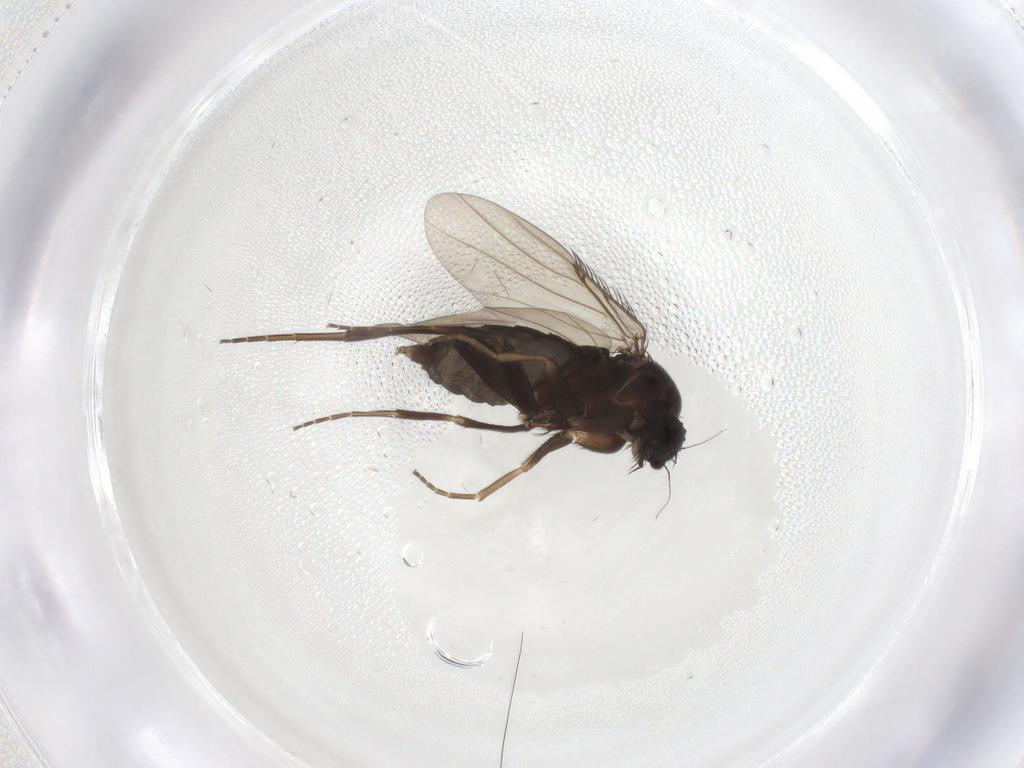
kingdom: Animalia
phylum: Arthropoda
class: Insecta
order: Diptera
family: Phoridae
